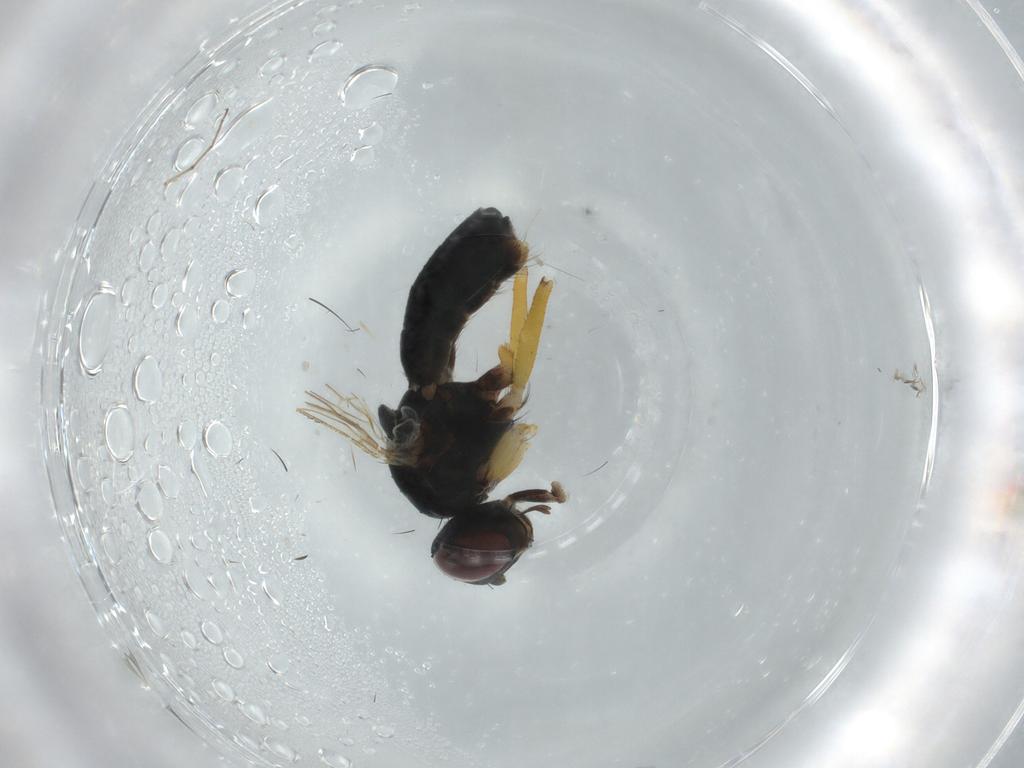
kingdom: Animalia
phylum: Arthropoda
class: Insecta
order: Diptera
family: Muscidae
